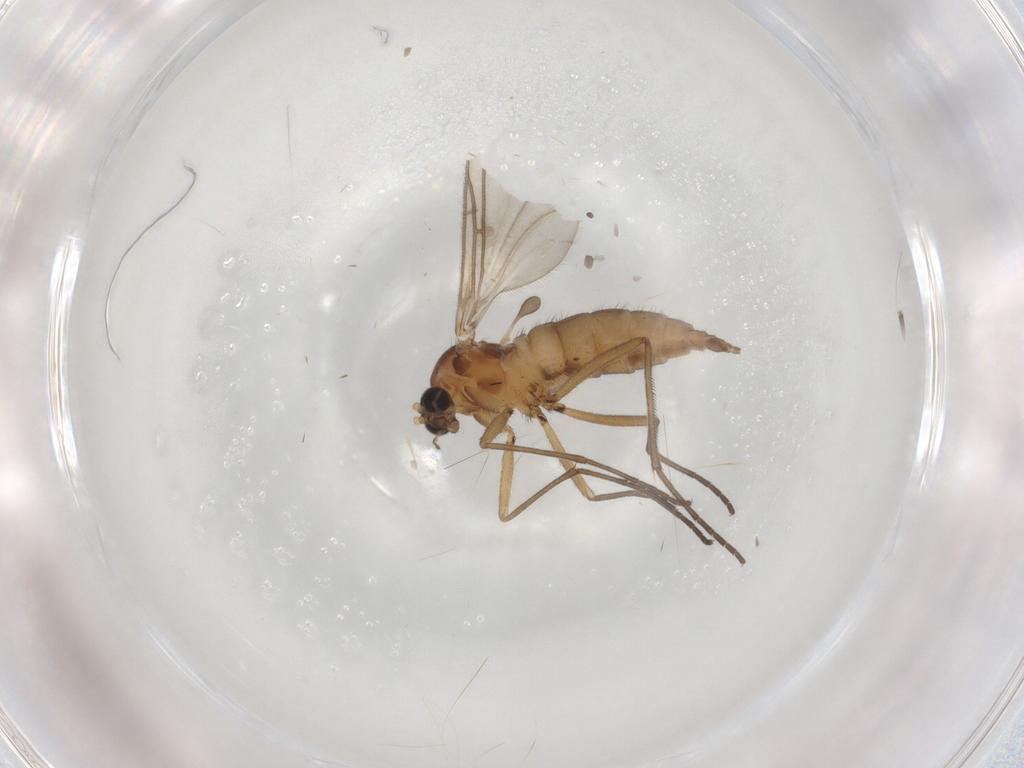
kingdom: Animalia
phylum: Arthropoda
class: Insecta
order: Diptera
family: Sciaridae
